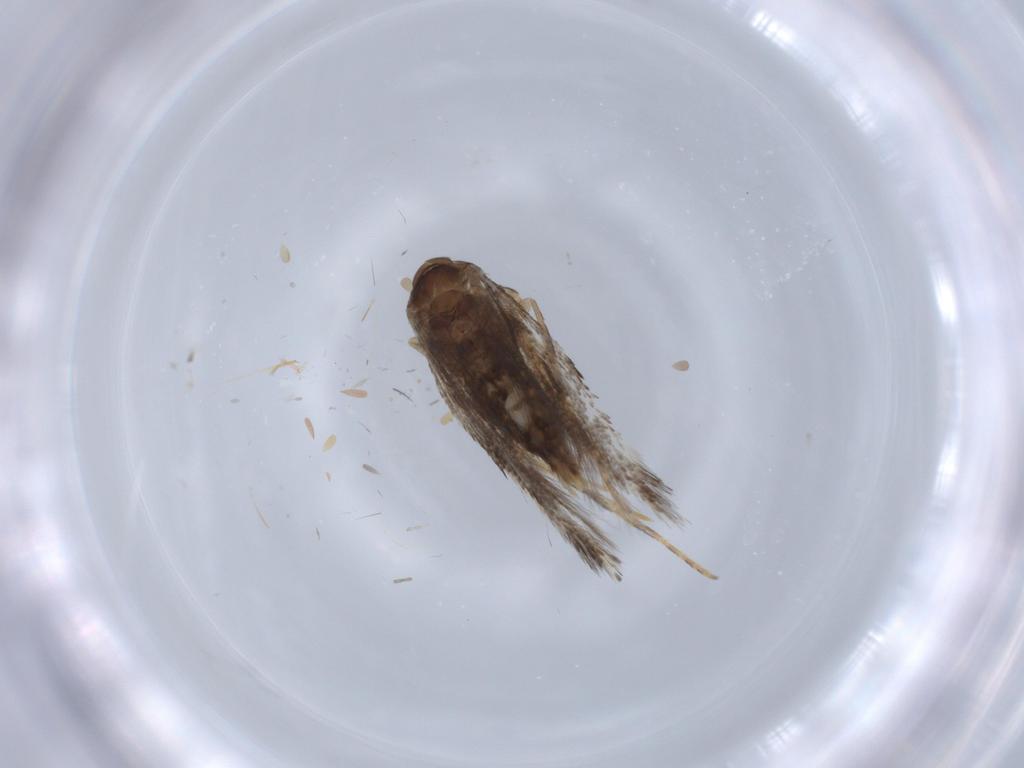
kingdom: Animalia
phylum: Arthropoda
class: Insecta
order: Lepidoptera
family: Elachistidae
